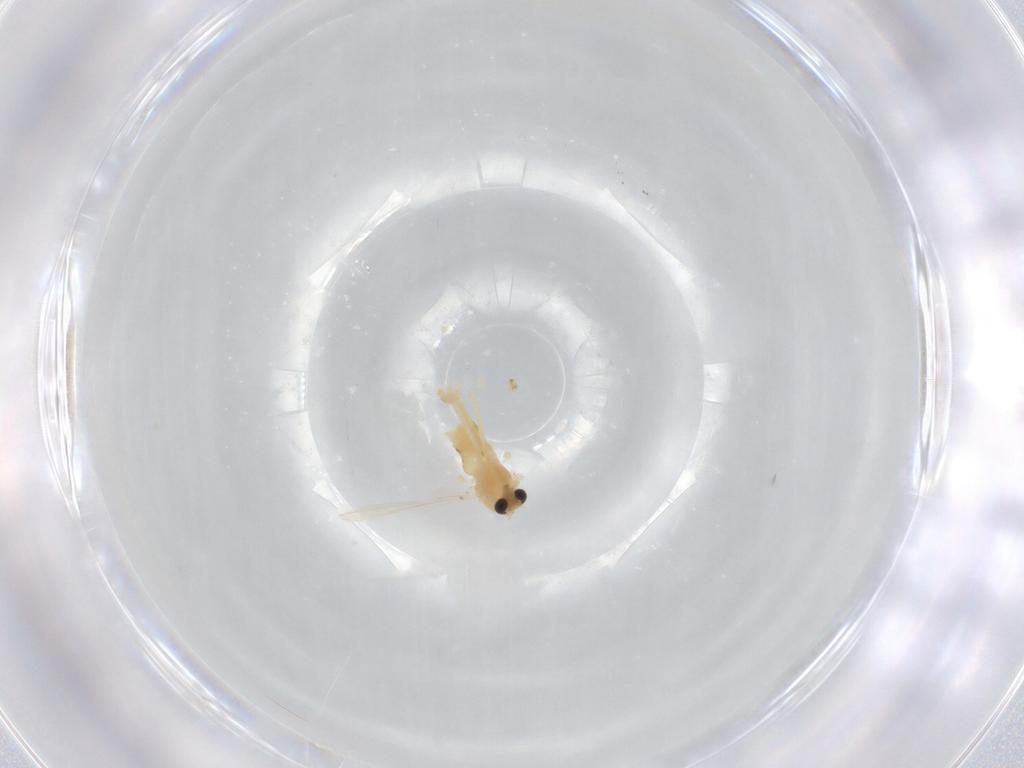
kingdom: Animalia
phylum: Arthropoda
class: Insecta
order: Diptera
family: Chironomidae
